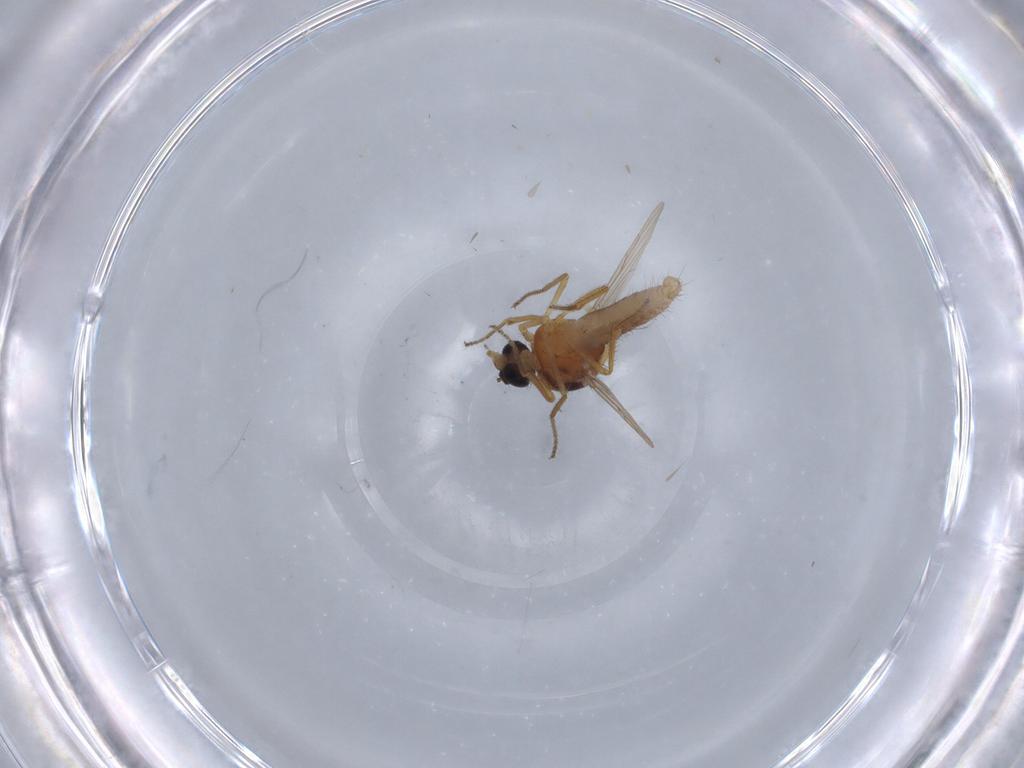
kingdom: Animalia
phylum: Arthropoda
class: Insecta
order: Diptera
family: Ceratopogonidae
